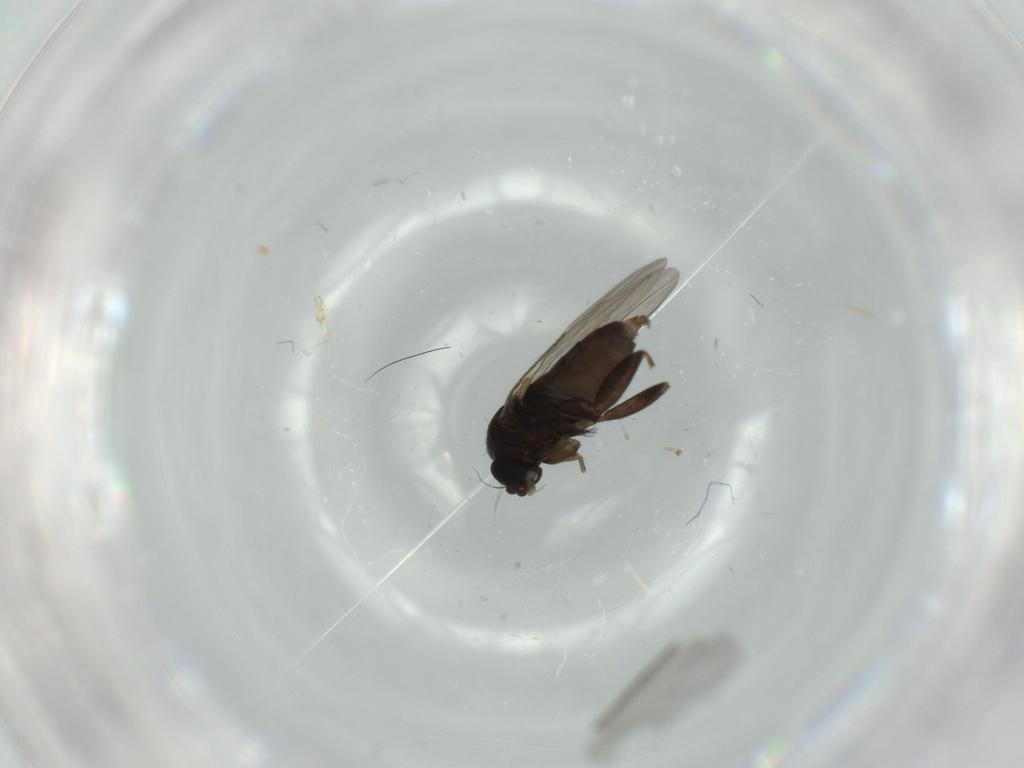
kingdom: Animalia
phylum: Arthropoda
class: Insecta
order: Diptera
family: Phoridae
